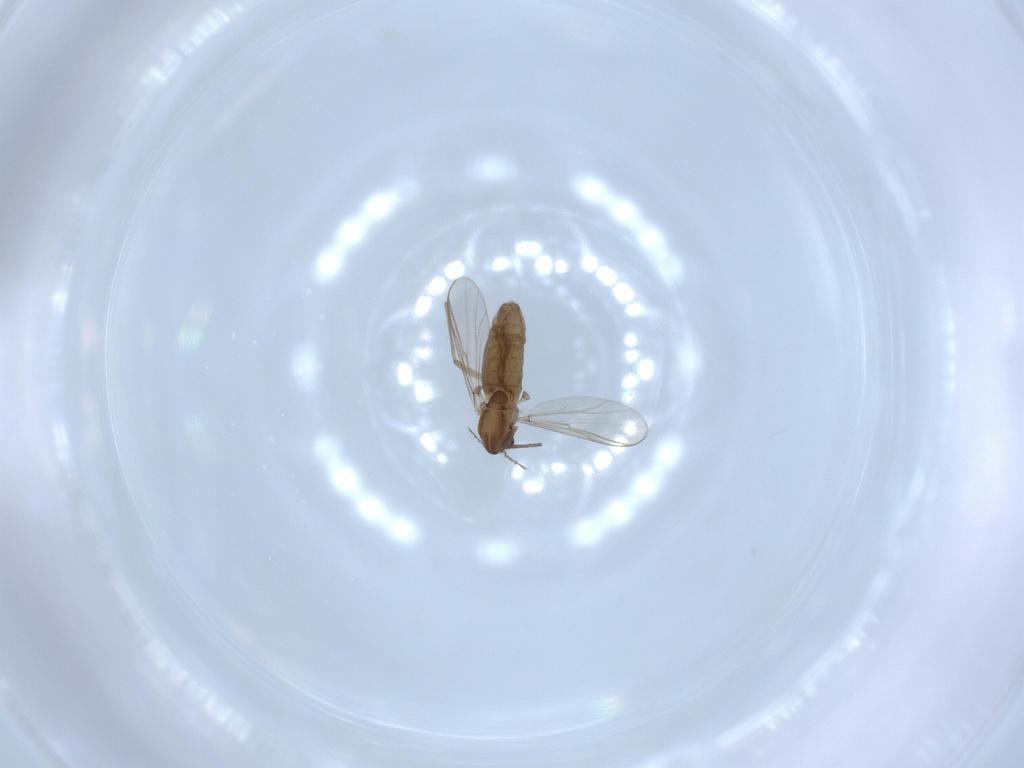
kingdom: Animalia
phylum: Arthropoda
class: Insecta
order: Diptera
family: Chironomidae
